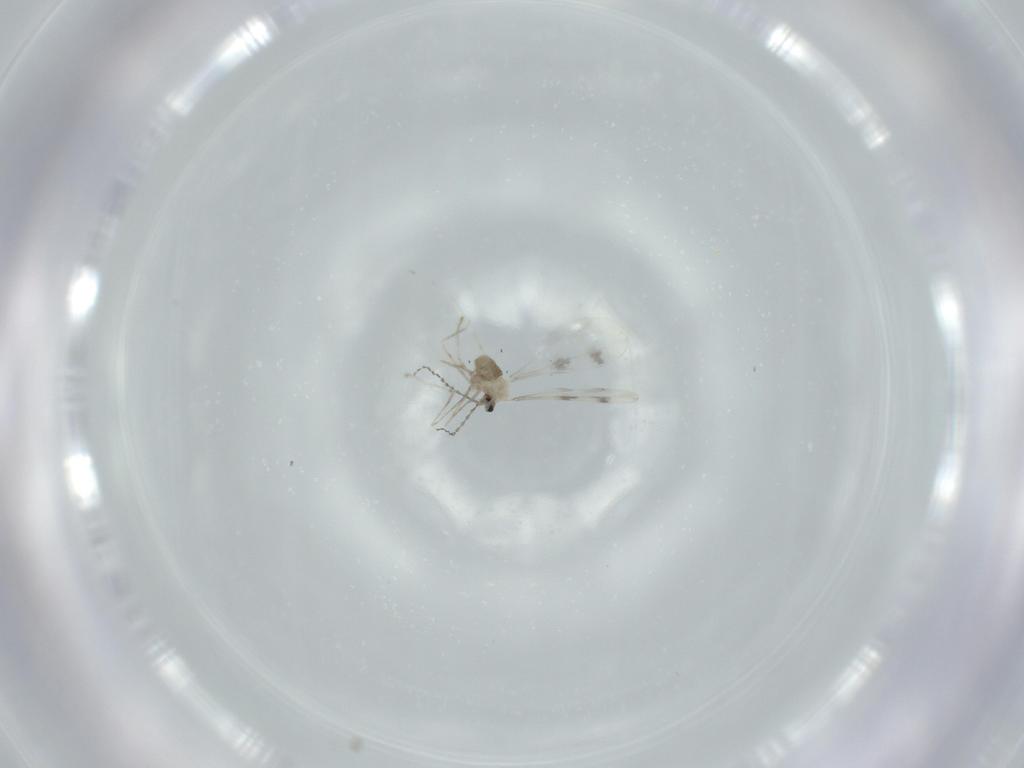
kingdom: Animalia
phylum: Arthropoda
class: Insecta
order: Diptera
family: Cecidomyiidae
